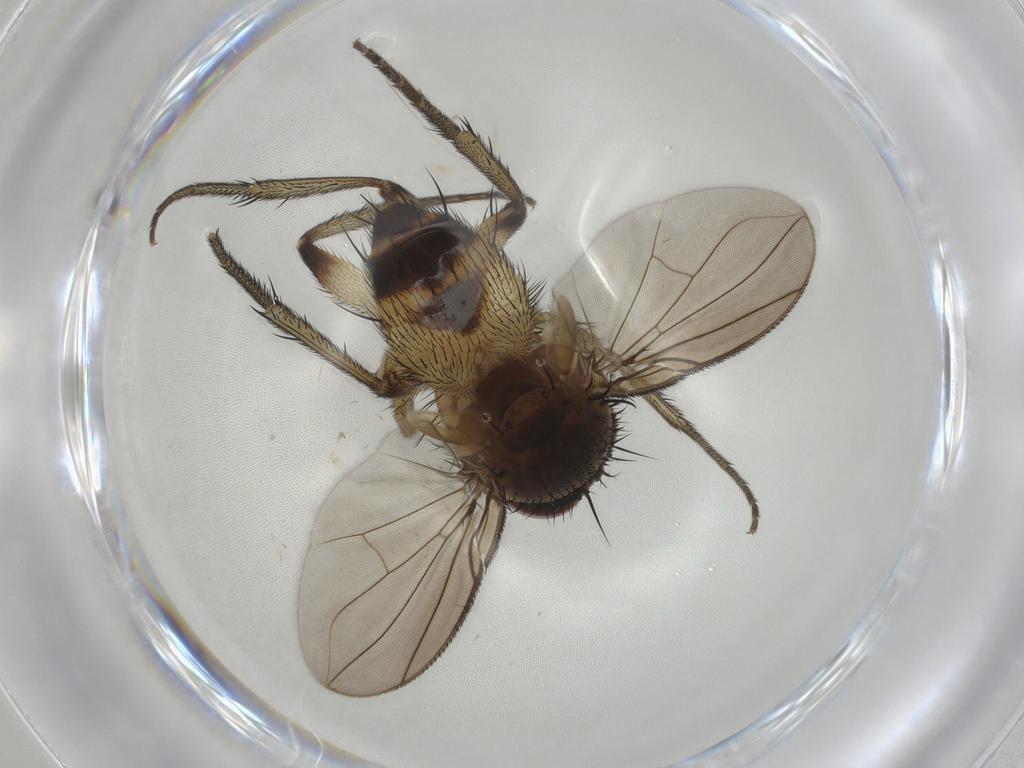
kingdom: Animalia
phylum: Arthropoda
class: Insecta
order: Diptera
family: Tachinidae
